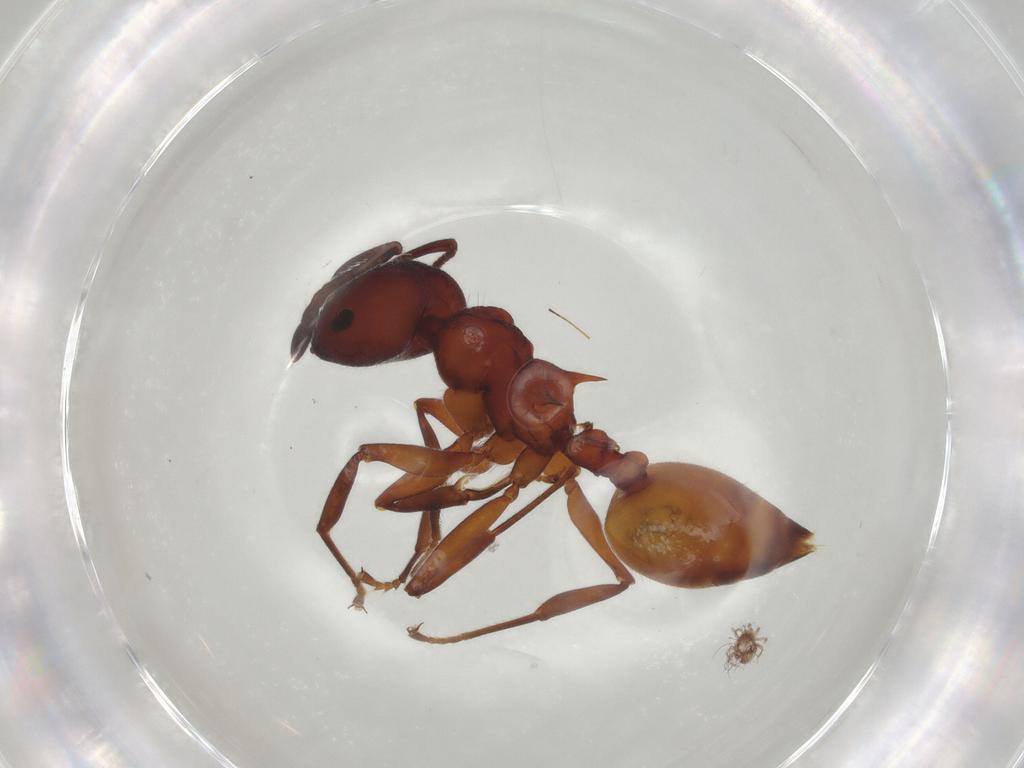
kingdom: Animalia
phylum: Arthropoda
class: Insecta
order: Hymenoptera
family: Formicidae
